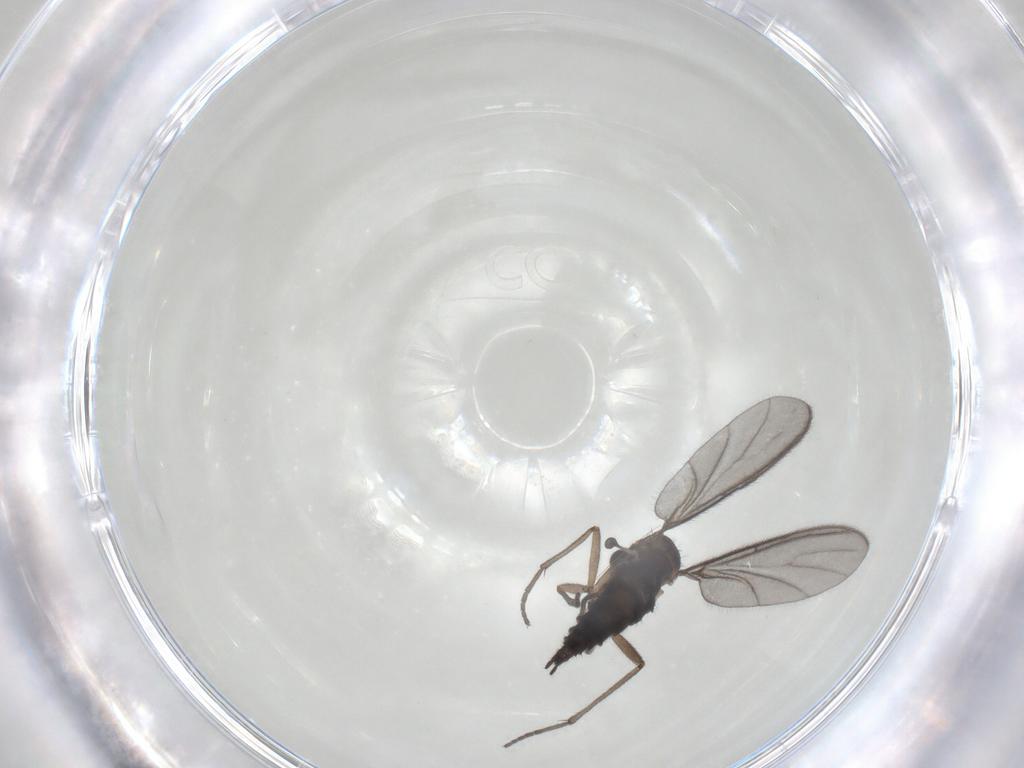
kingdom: Animalia
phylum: Arthropoda
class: Insecta
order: Diptera
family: Sciaridae
